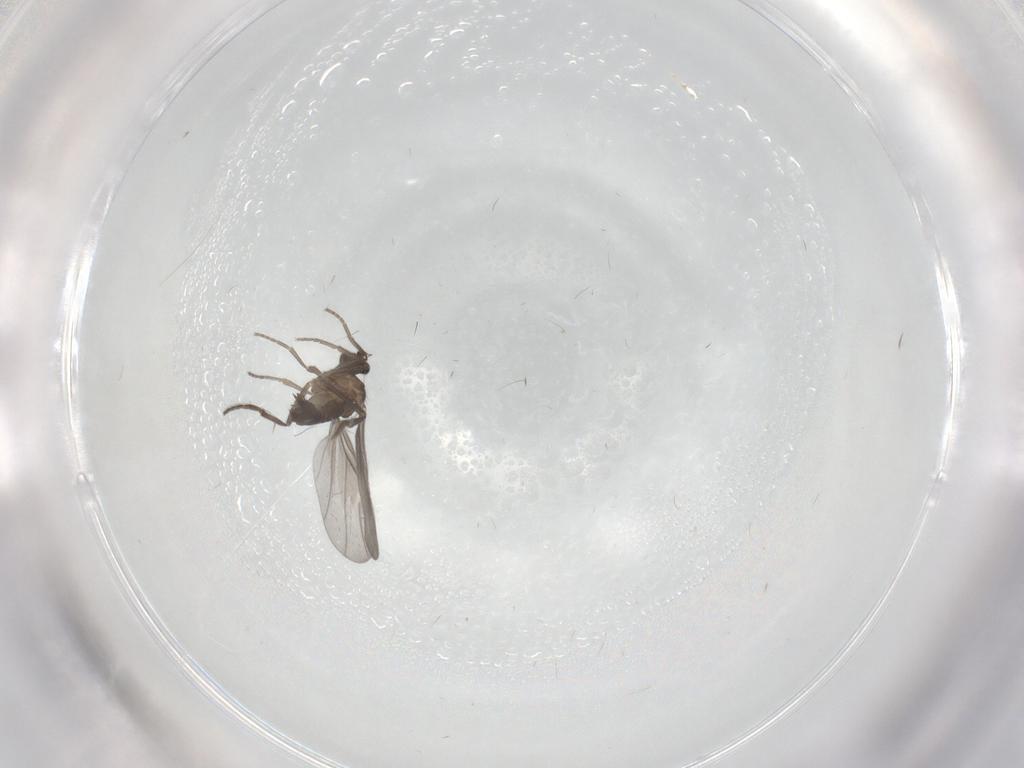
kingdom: Animalia
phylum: Arthropoda
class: Insecta
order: Diptera
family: Phoridae
